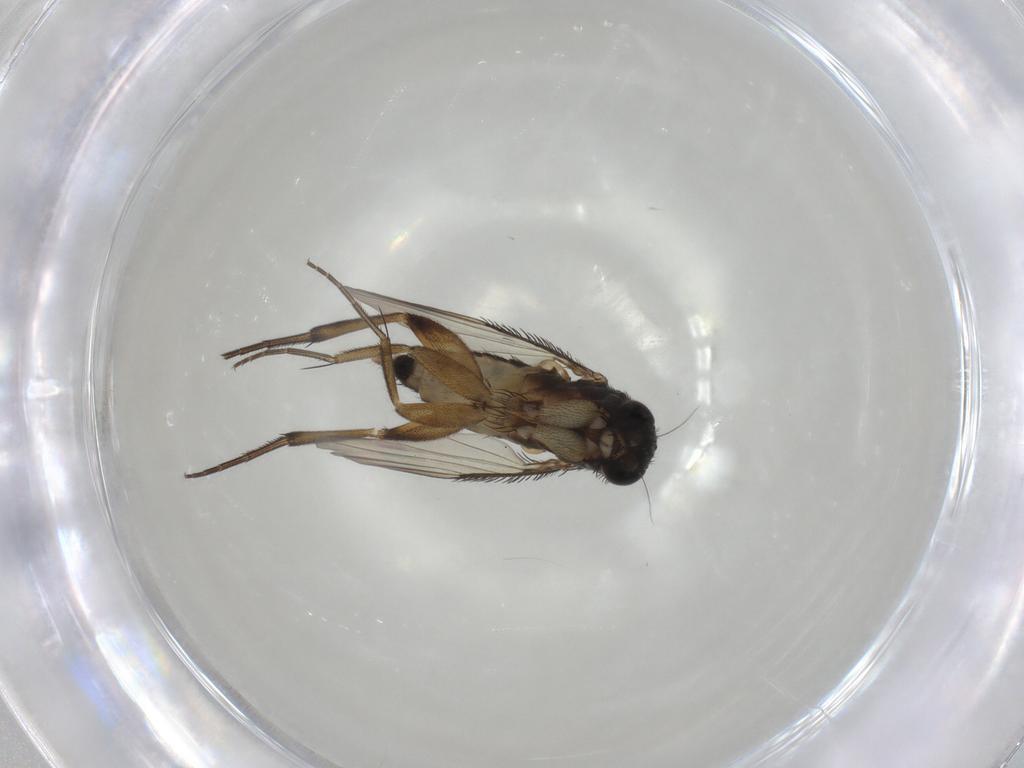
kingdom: Animalia
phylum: Arthropoda
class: Insecta
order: Diptera
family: Phoridae
